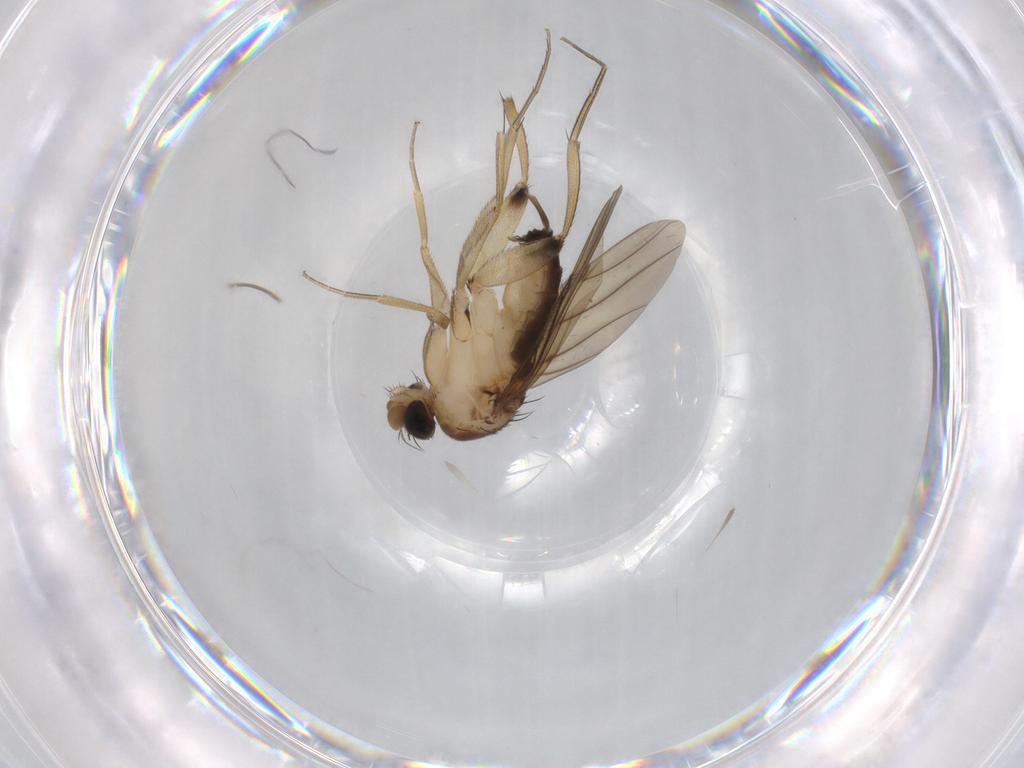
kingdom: Animalia
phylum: Arthropoda
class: Insecta
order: Diptera
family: Phoridae
